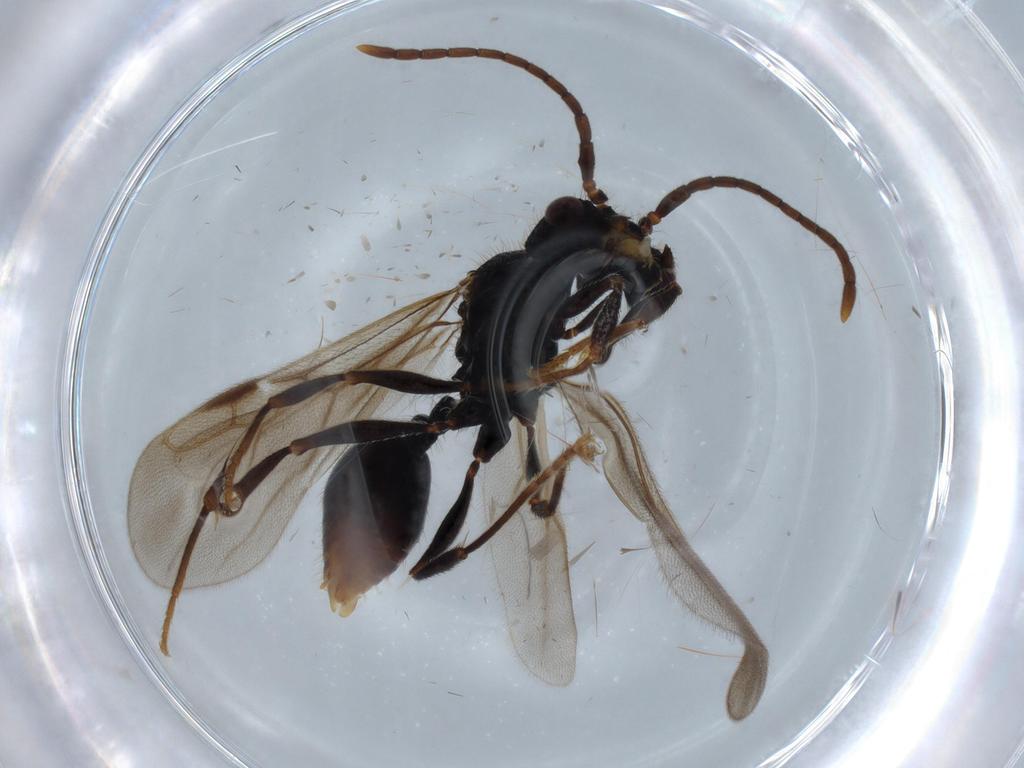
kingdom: Animalia
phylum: Arthropoda
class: Insecta
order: Hymenoptera
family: Formicidae
